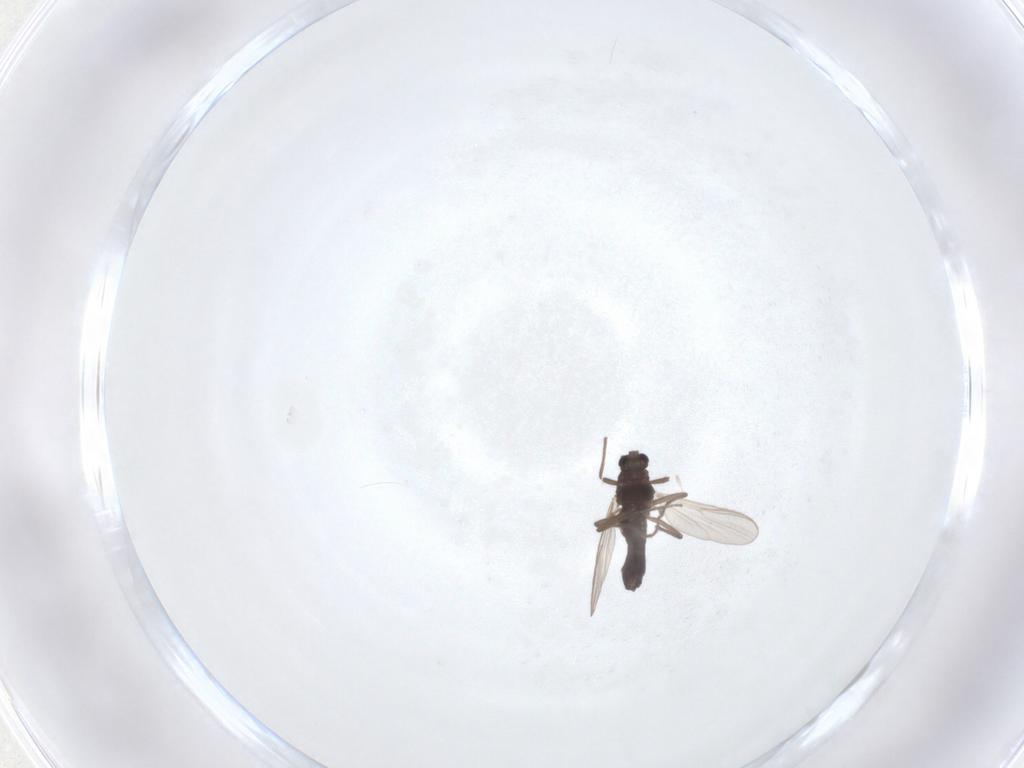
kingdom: Animalia
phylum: Arthropoda
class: Insecta
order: Diptera
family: Chironomidae
